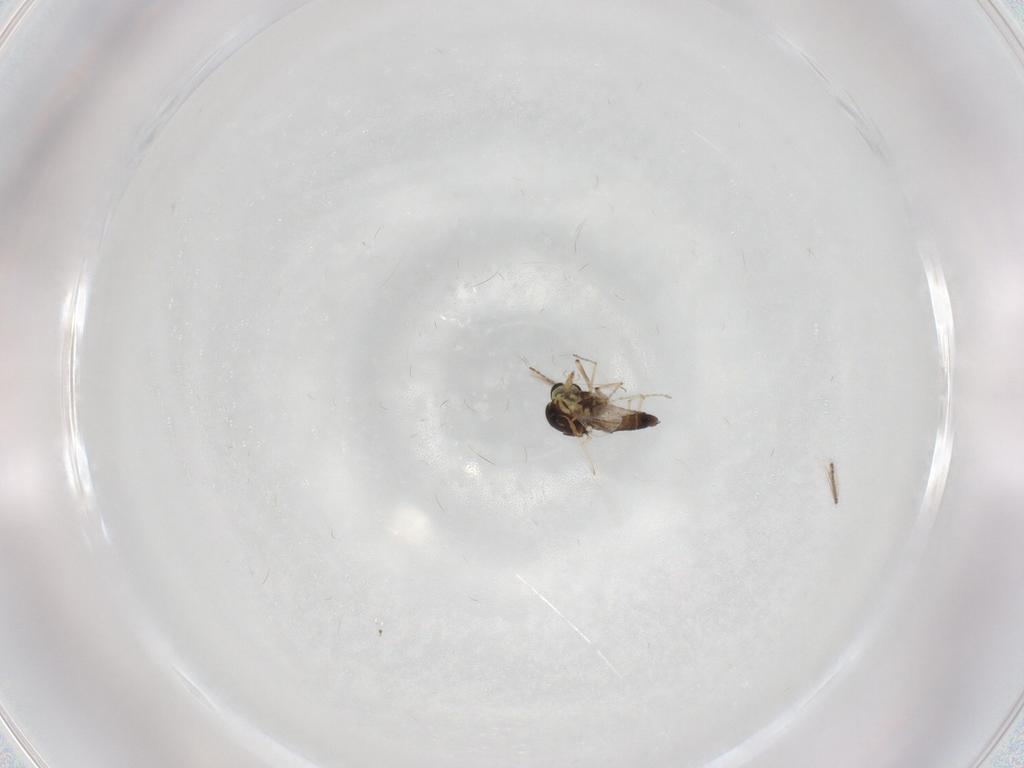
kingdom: Animalia
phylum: Arthropoda
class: Insecta
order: Diptera
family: Ceratopogonidae
